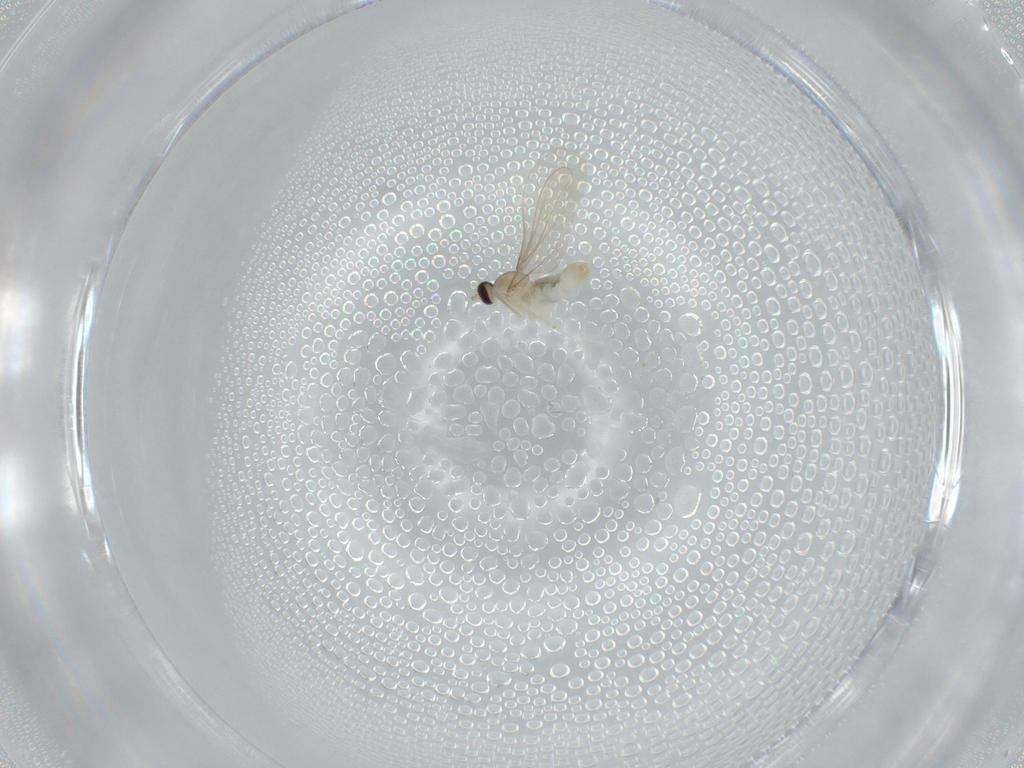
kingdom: Animalia
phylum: Arthropoda
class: Insecta
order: Diptera
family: Cecidomyiidae
